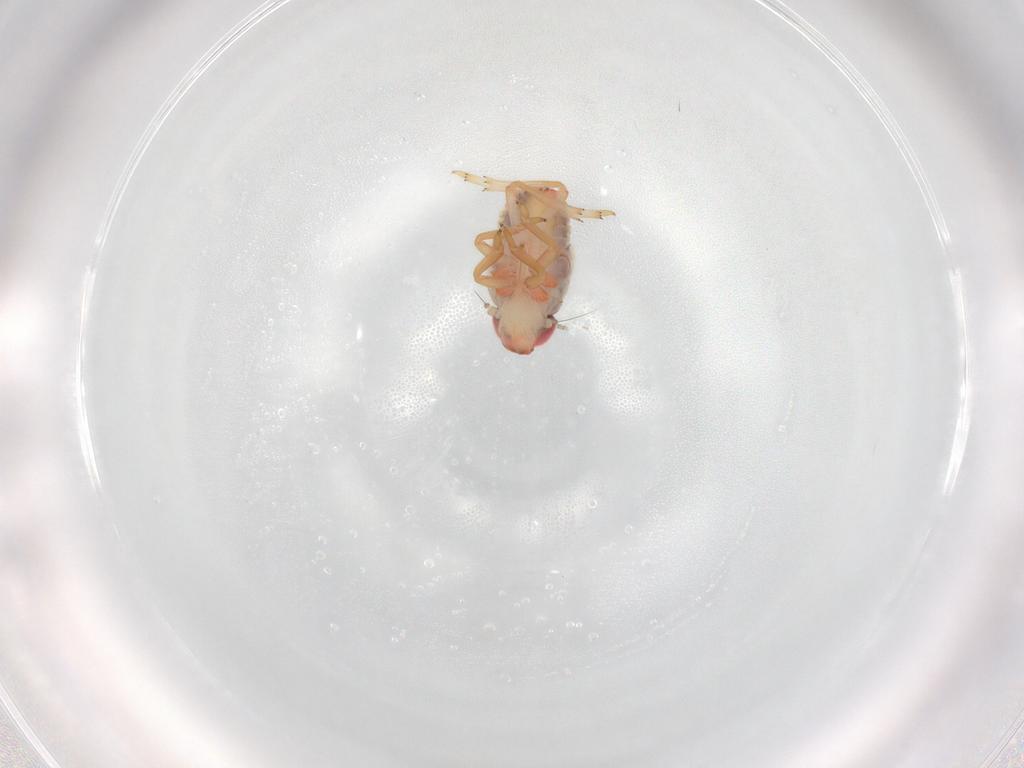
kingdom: Animalia
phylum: Arthropoda
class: Insecta
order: Hemiptera
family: Issidae
